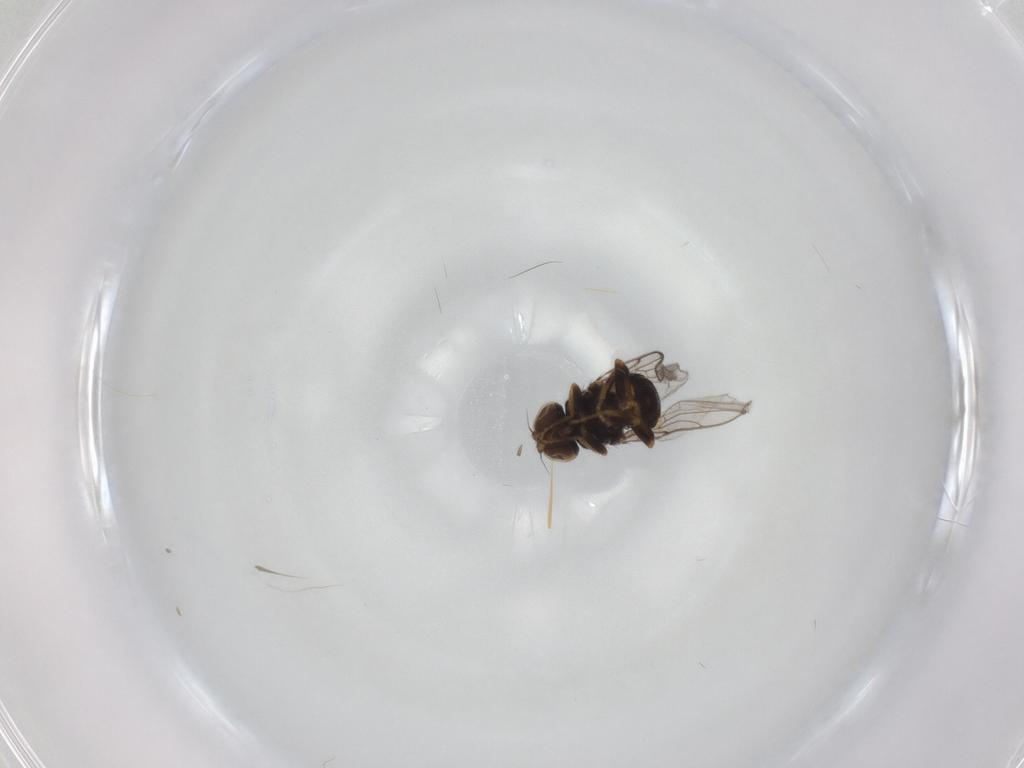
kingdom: Animalia
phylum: Arthropoda
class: Insecta
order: Diptera
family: Chloropidae
